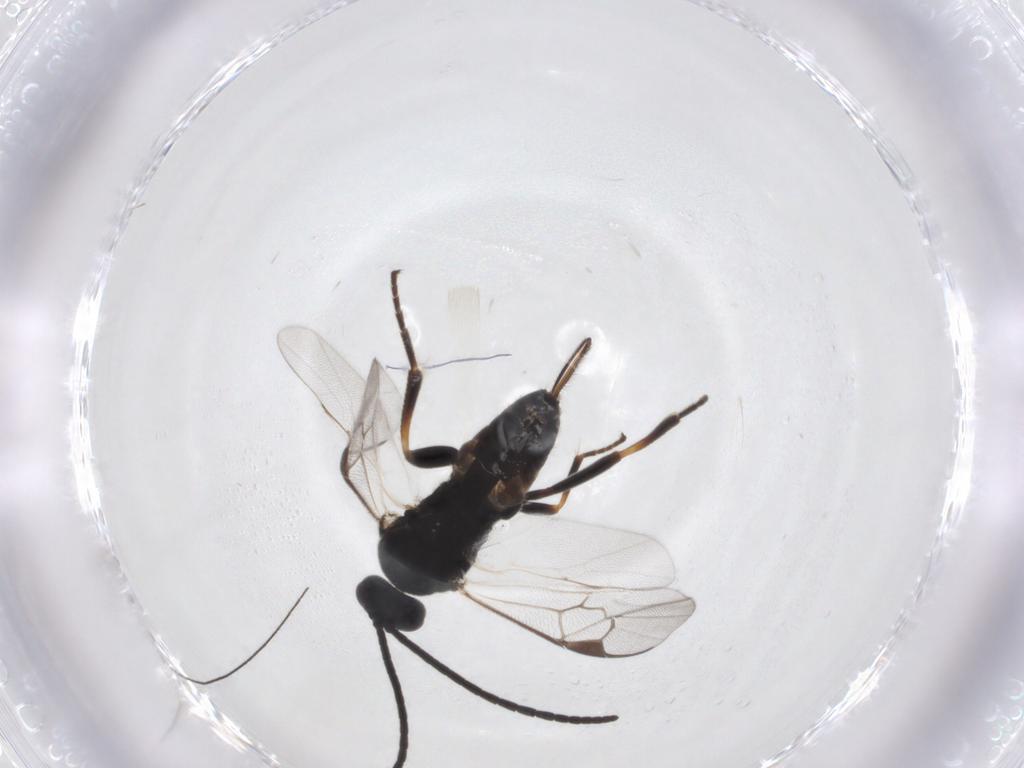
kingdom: Animalia
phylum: Arthropoda
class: Insecta
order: Hymenoptera
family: Braconidae
